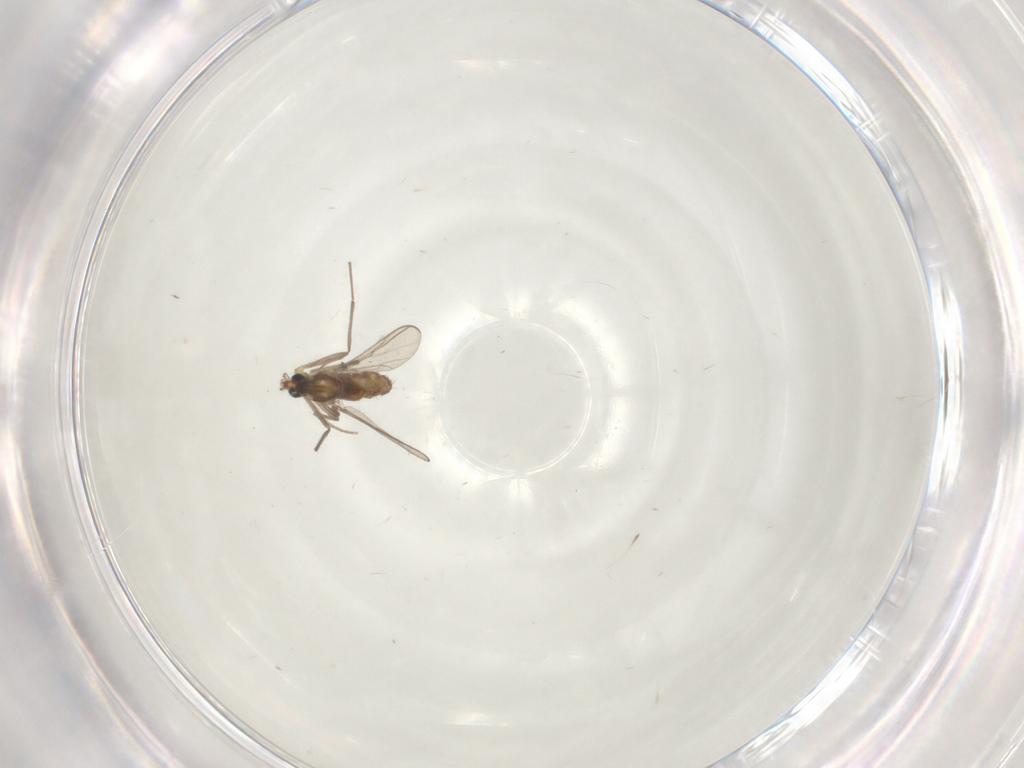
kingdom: Animalia
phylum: Arthropoda
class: Insecta
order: Diptera
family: Chironomidae
